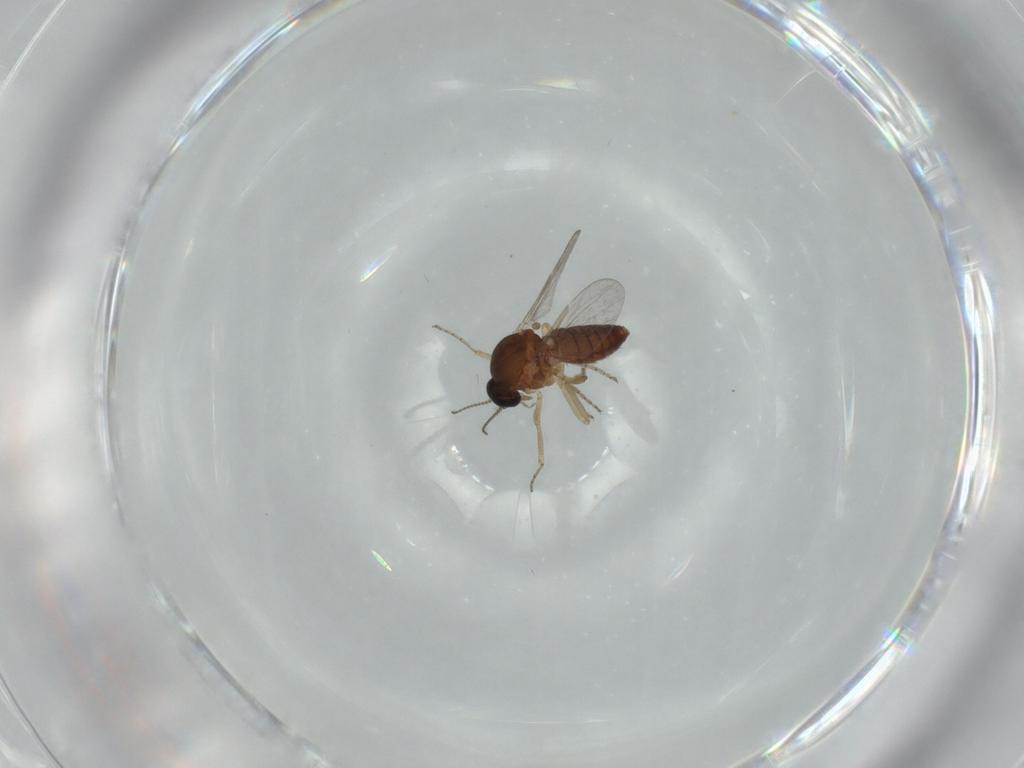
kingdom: Animalia
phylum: Arthropoda
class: Insecta
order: Diptera
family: Ceratopogonidae
